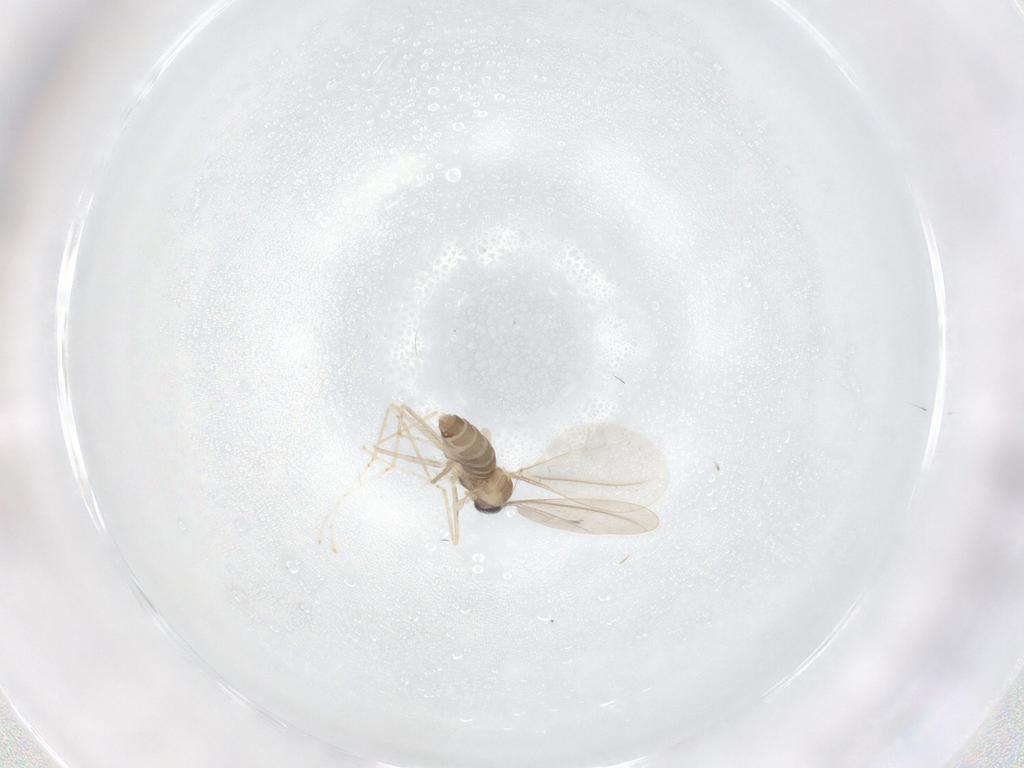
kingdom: Animalia
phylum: Arthropoda
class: Insecta
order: Diptera
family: Cecidomyiidae
